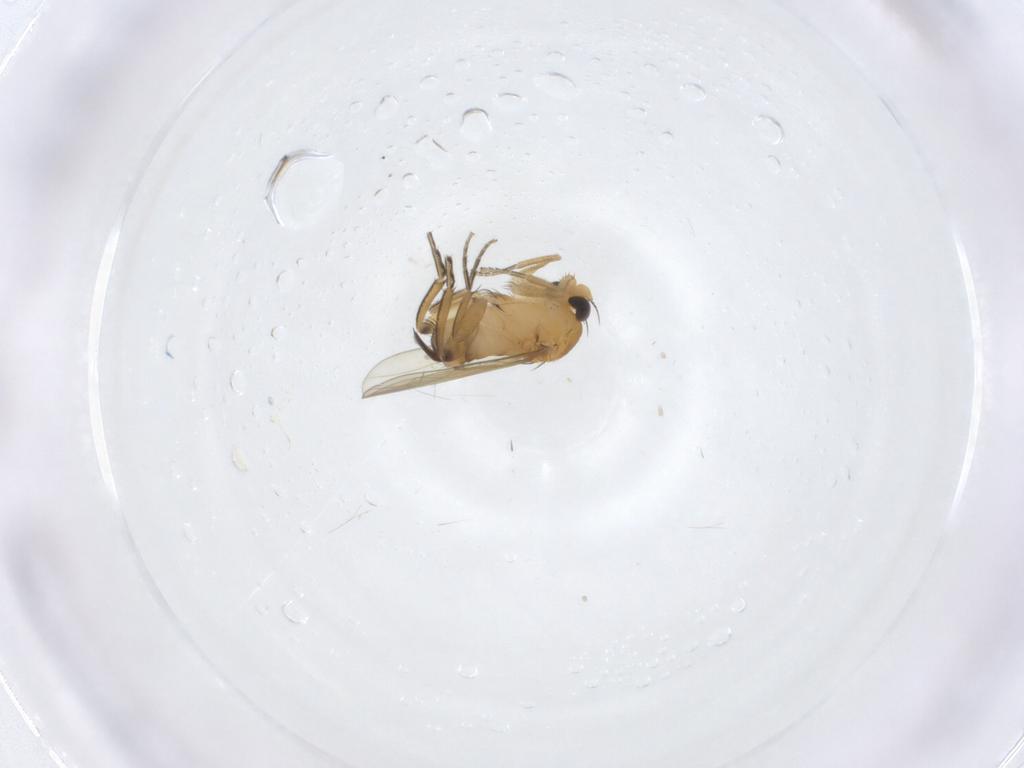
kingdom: Animalia
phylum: Arthropoda
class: Insecta
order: Diptera
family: Phoridae
